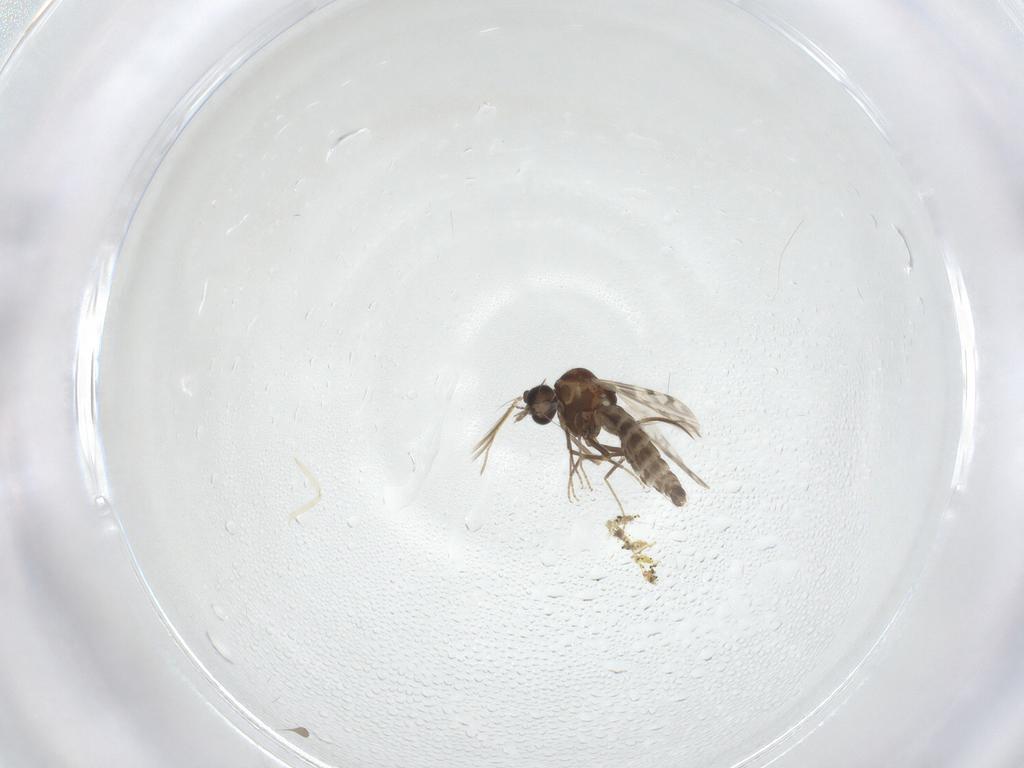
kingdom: Animalia
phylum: Arthropoda
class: Insecta
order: Diptera
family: Ceratopogonidae
